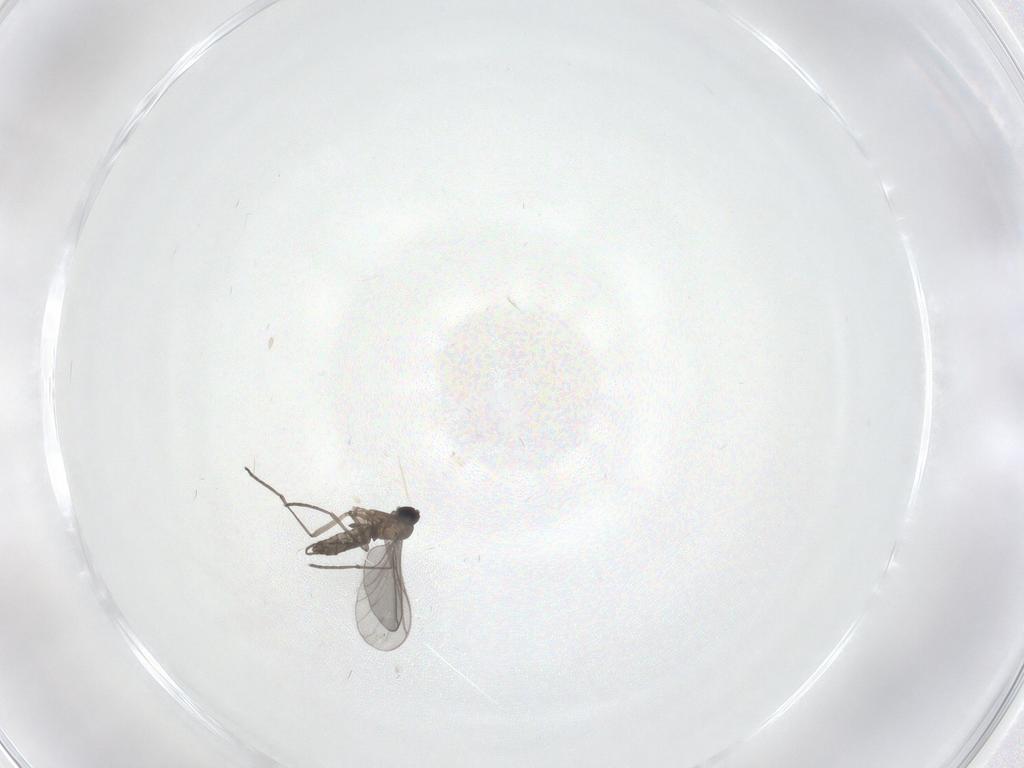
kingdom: Animalia
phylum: Arthropoda
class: Insecta
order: Diptera
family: Sciaridae
